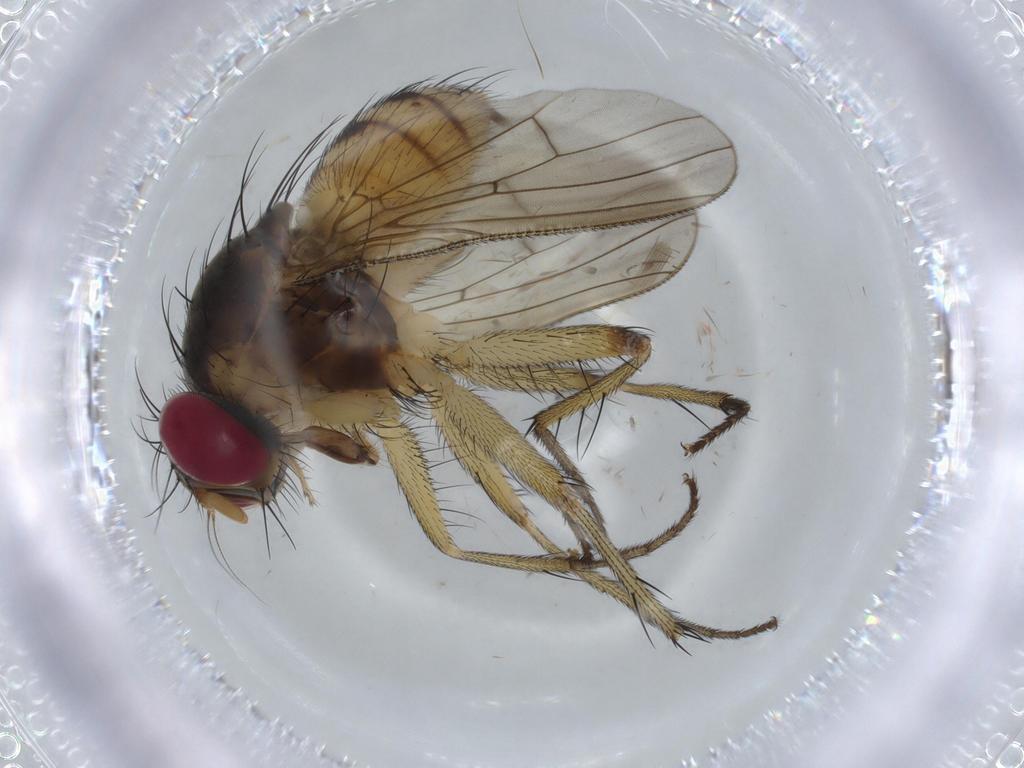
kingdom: Animalia
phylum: Arthropoda
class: Insecta
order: Diptera
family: Muscidae
